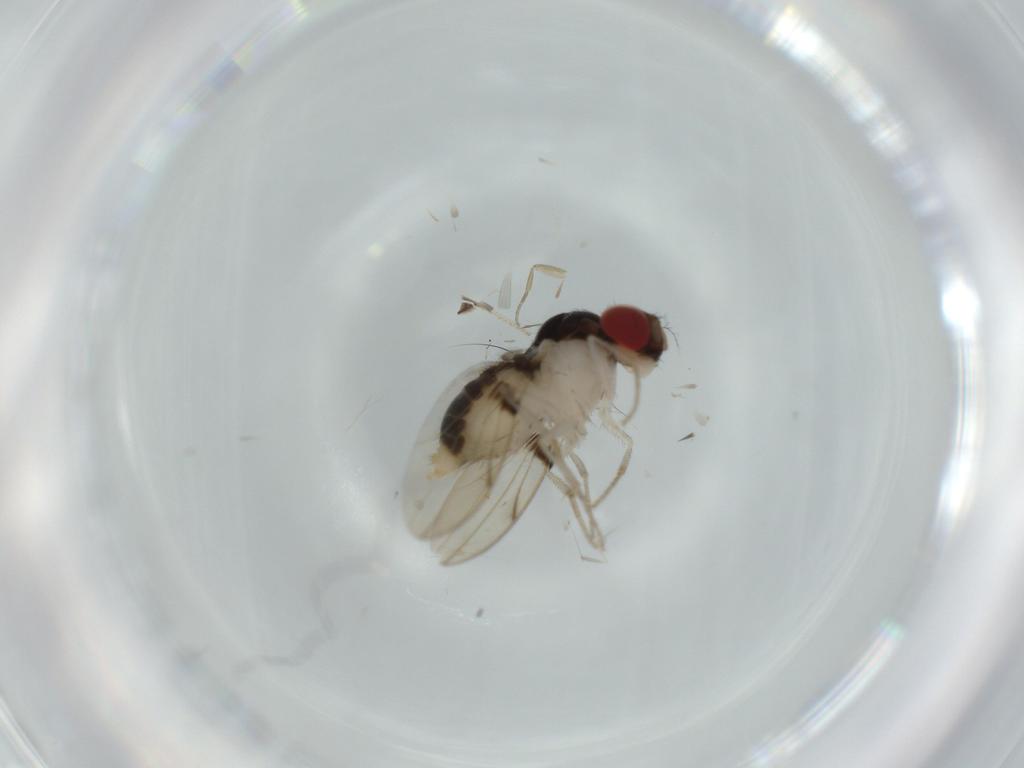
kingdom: Animalia
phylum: Arthropoda
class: Insecta
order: Diptera
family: Drosophilidae
